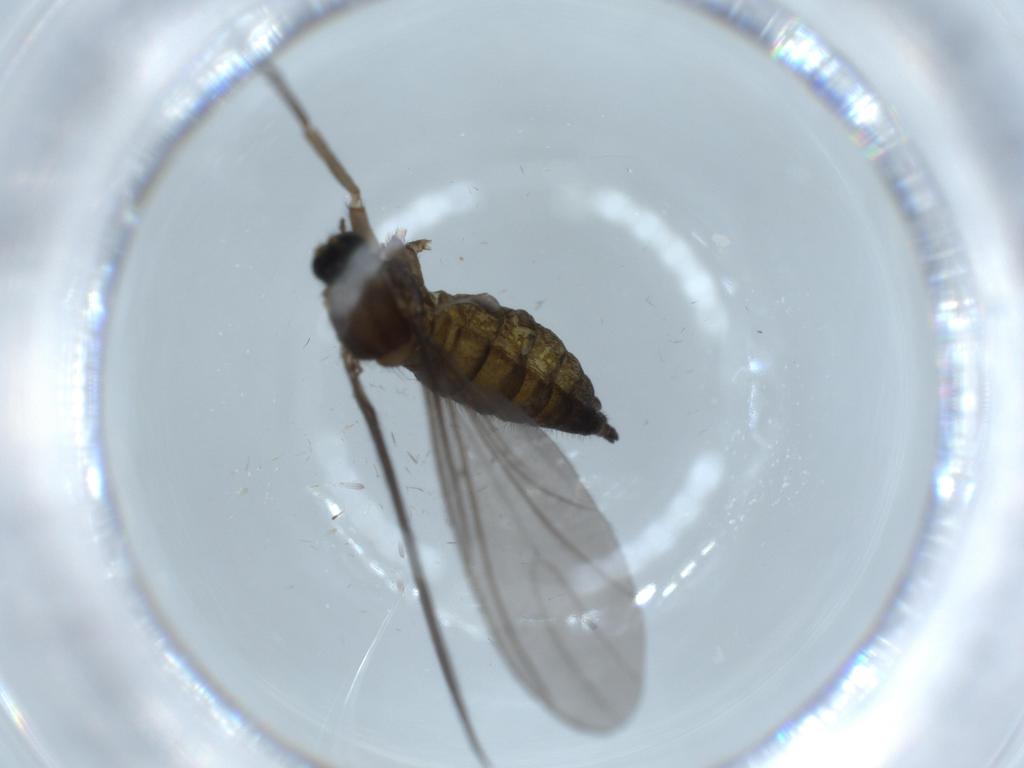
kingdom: Animalia
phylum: Arthropoda
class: Insecta
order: Diptera
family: Sciaridae
